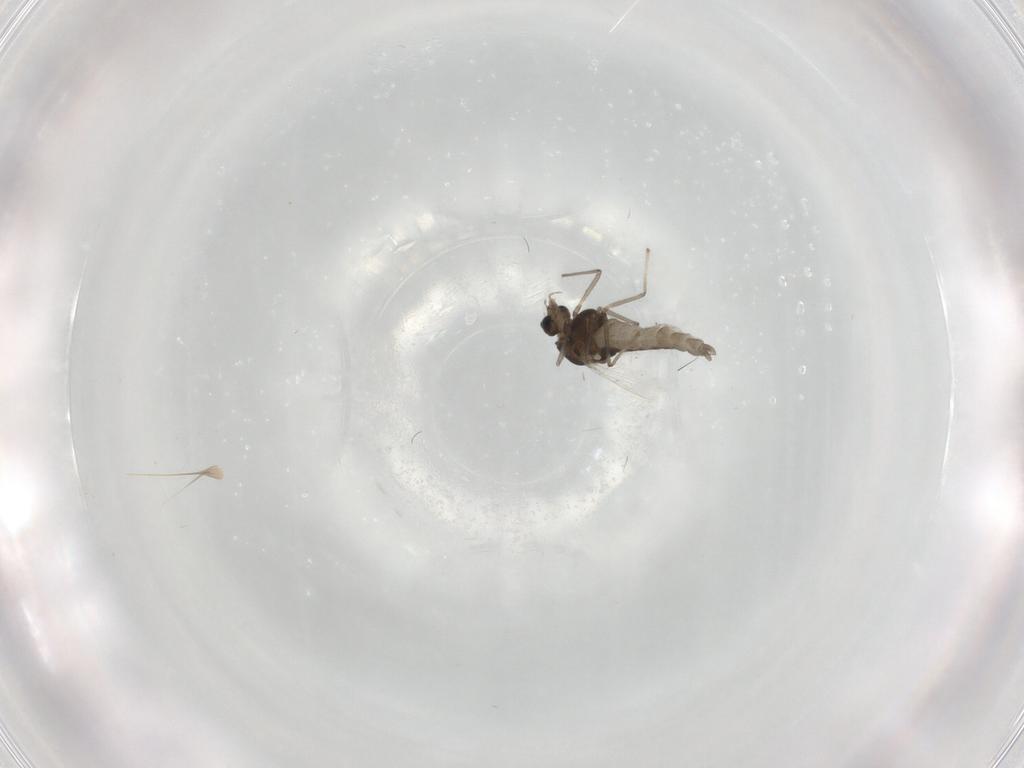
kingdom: Animalia
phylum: Arthropoda
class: Insecta
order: Diptera
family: Chironomidae
